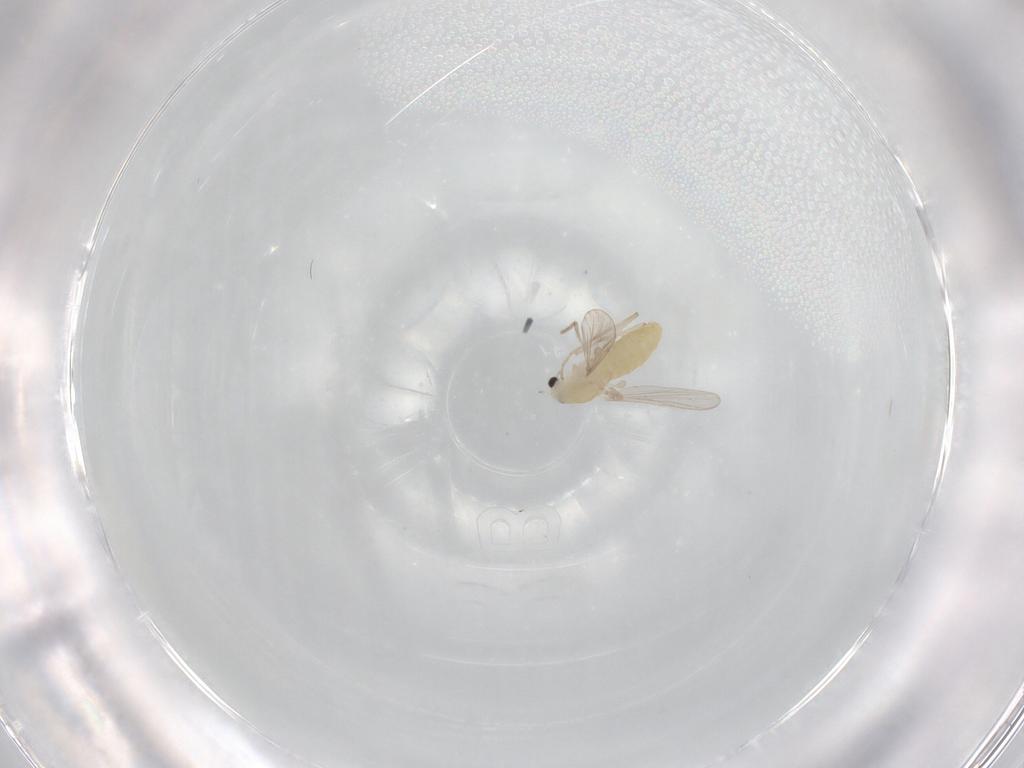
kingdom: Animalia
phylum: Arthropoda
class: Insecta
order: Diptera
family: Chironomidae
